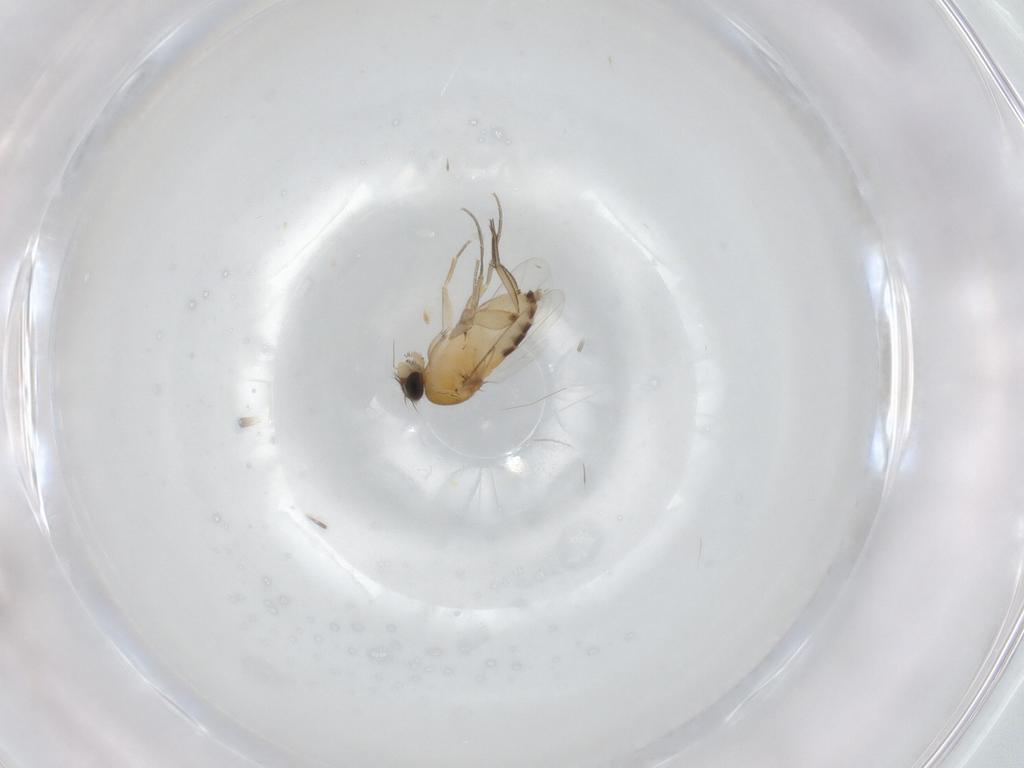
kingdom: Animalia
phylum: Arthropoda
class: Insecta
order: Diptera
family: Phoridae
